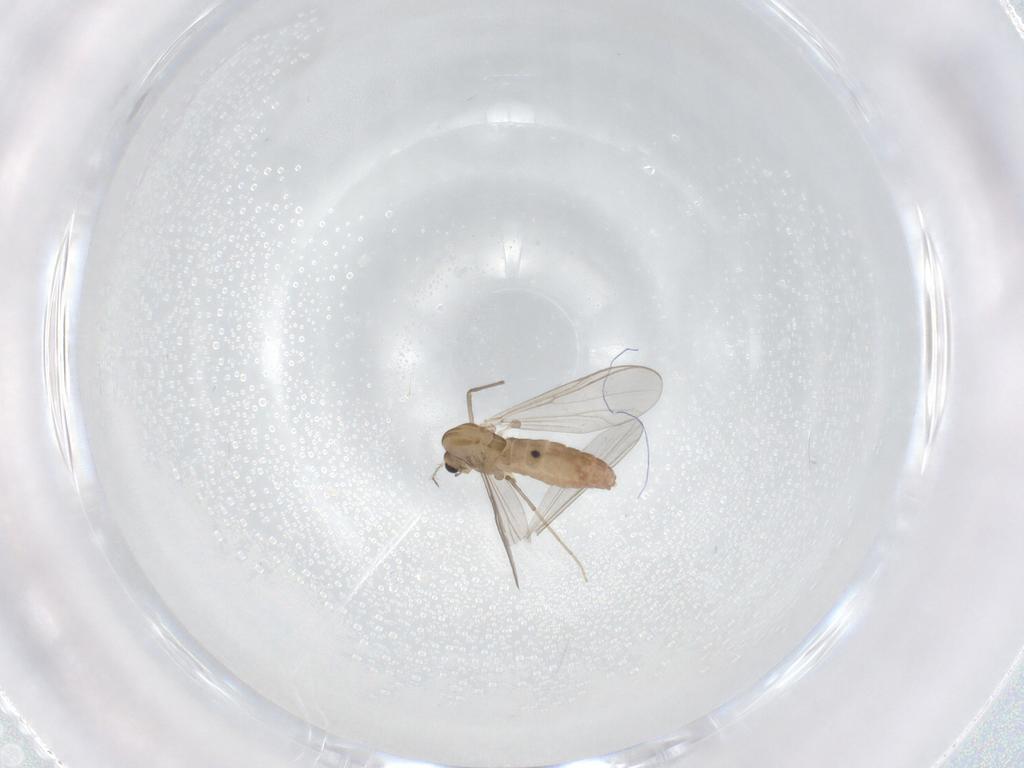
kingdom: Animalia
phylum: Arthropoda
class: Insecta
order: Diptera
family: Chironomidae
